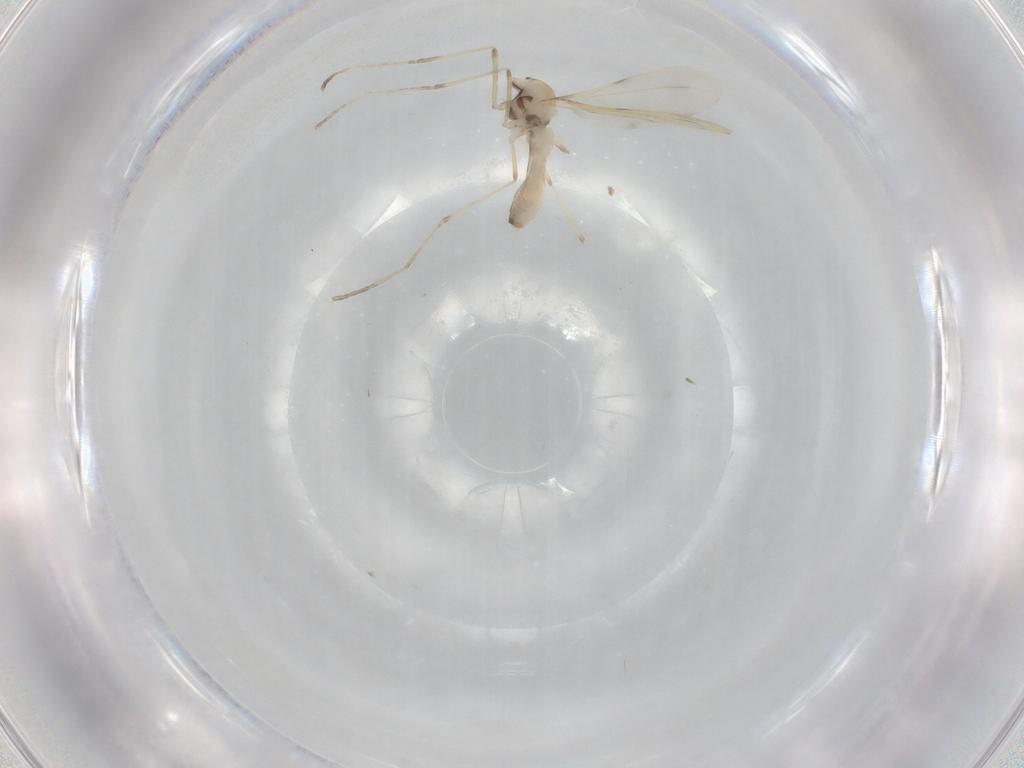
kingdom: Animalia
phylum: Arthropoda
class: Insecta
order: Diptera
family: Cecidomyiidae
